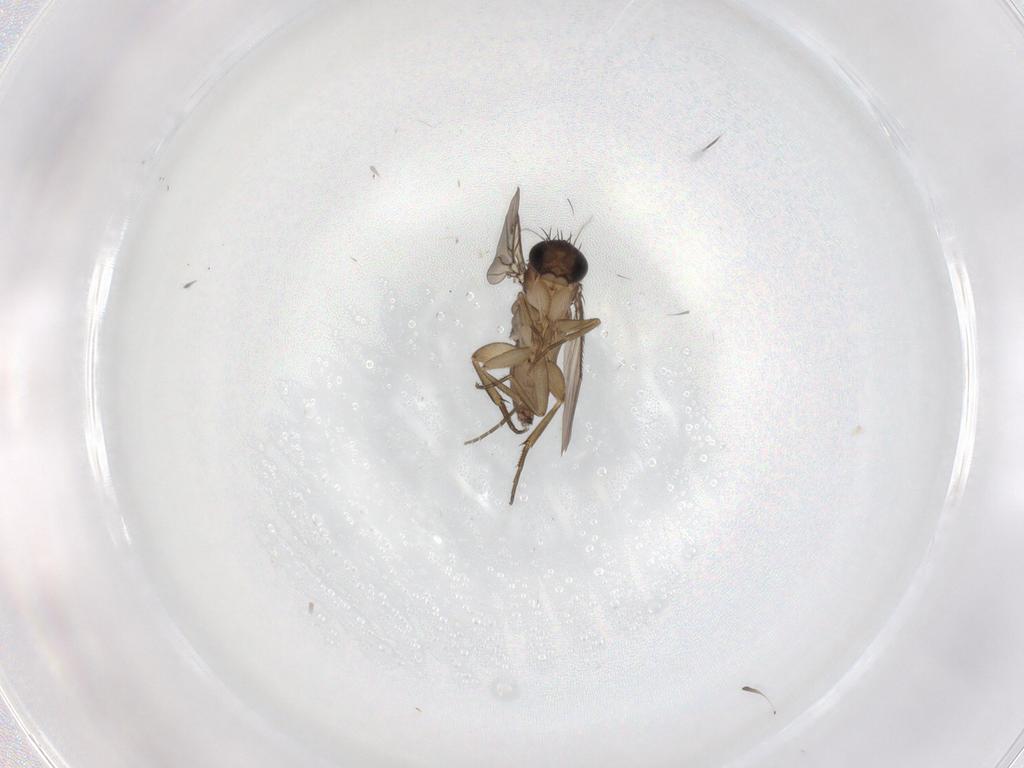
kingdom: Animalia
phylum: Arthropoda
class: Insecta
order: Diptera
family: Phoridae
